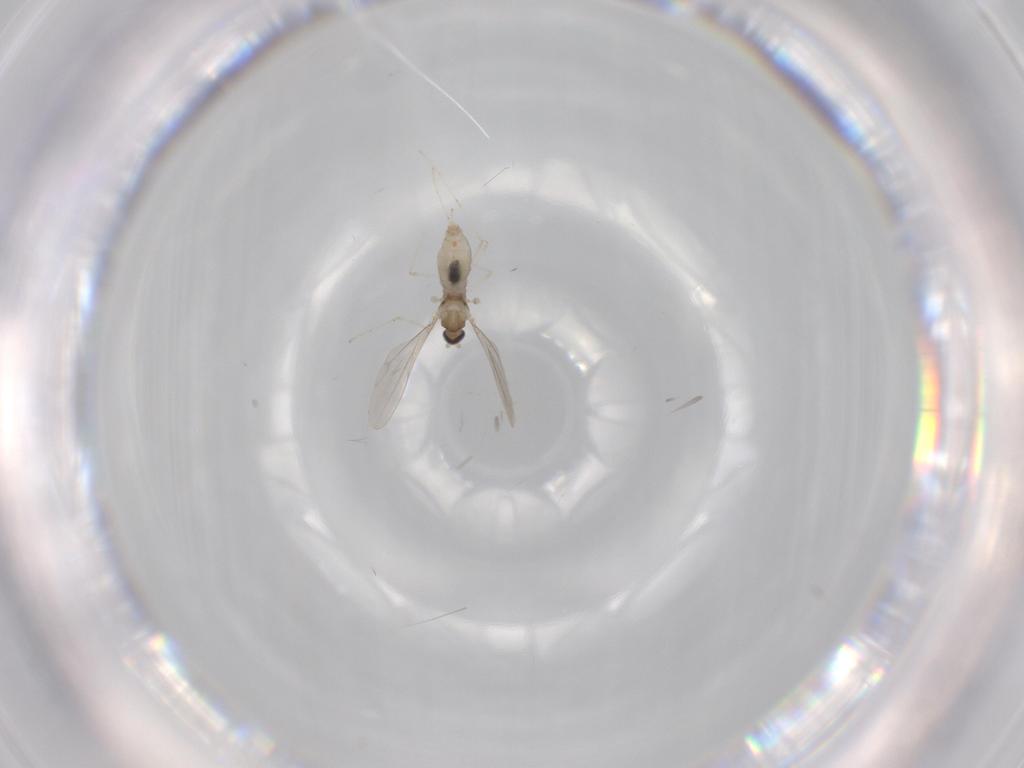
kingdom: Animalia
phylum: Arthropoda
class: Insecta
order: Diptera
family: Cecidomyiidae
